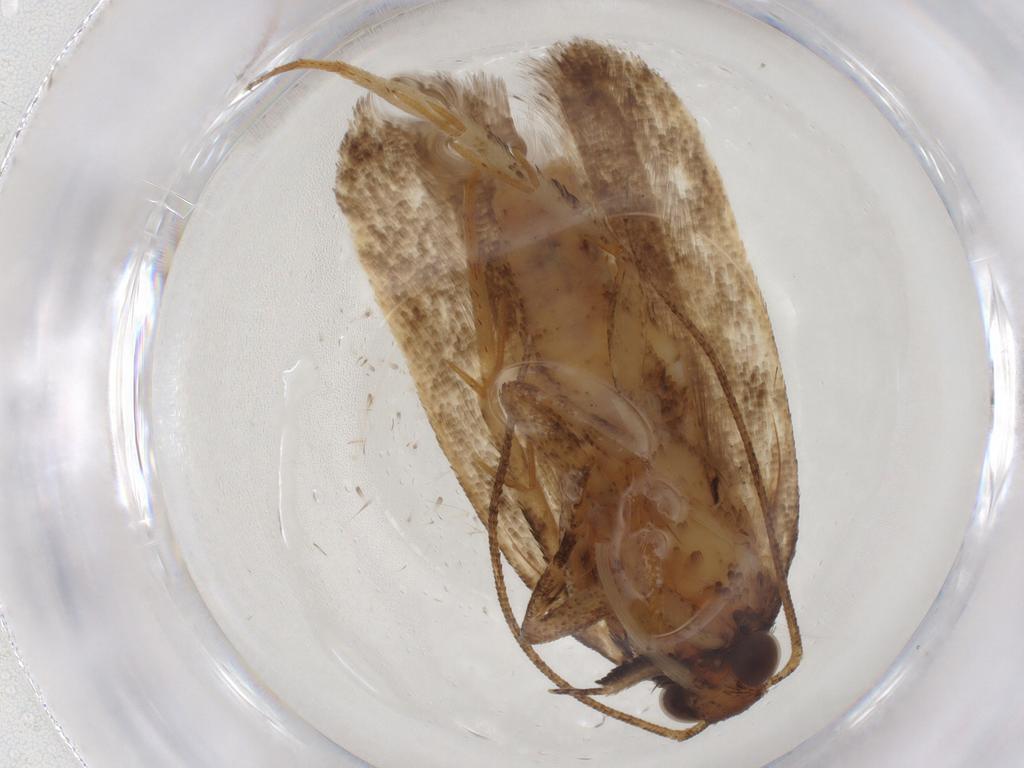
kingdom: Animalia
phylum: Arthropoda
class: Insecta
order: Lepidoptera
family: Gelechiidae
